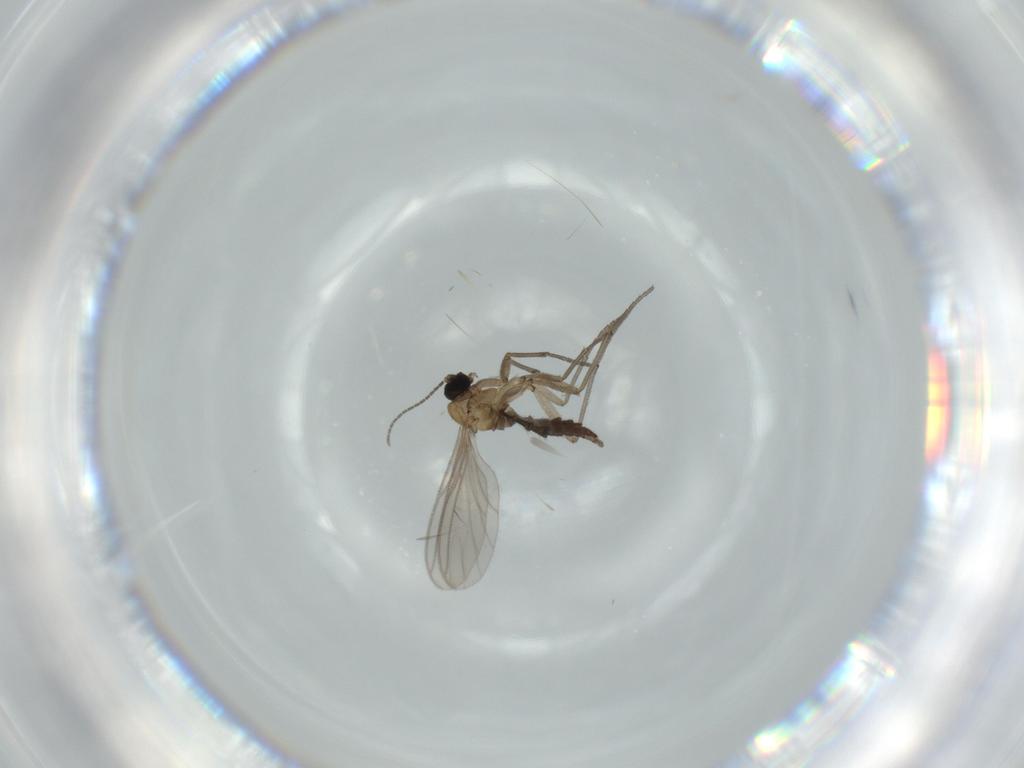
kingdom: Animalia
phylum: Arthropoda
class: Insecta
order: Diptera
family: Sciaridae
